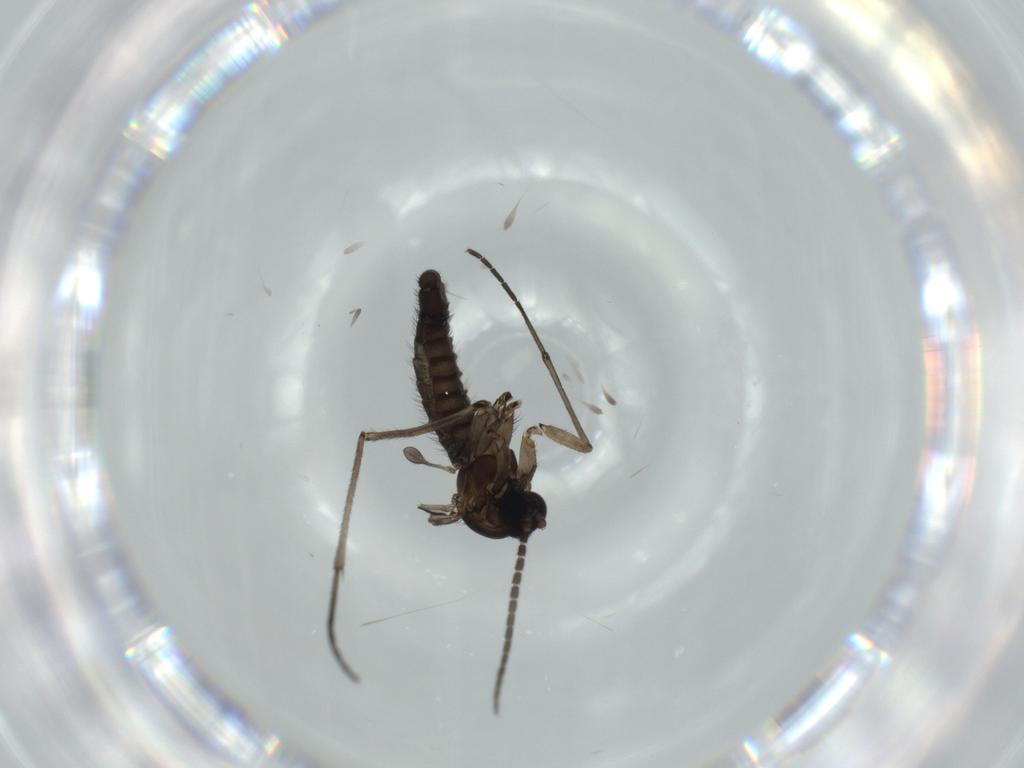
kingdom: Animalia
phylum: Arthropoda
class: Insecta
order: Diptera
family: Sciaridae
